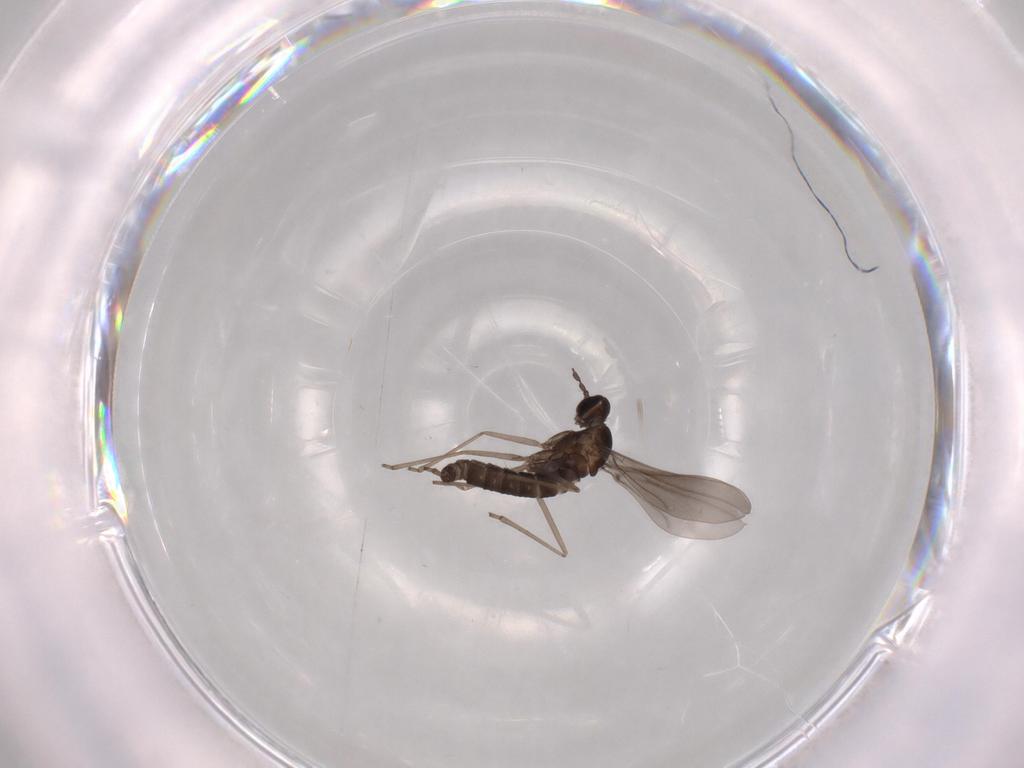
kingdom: Animalia
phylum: Arthropoda
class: Insecta
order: Diptera
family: Cecidomyiidae
